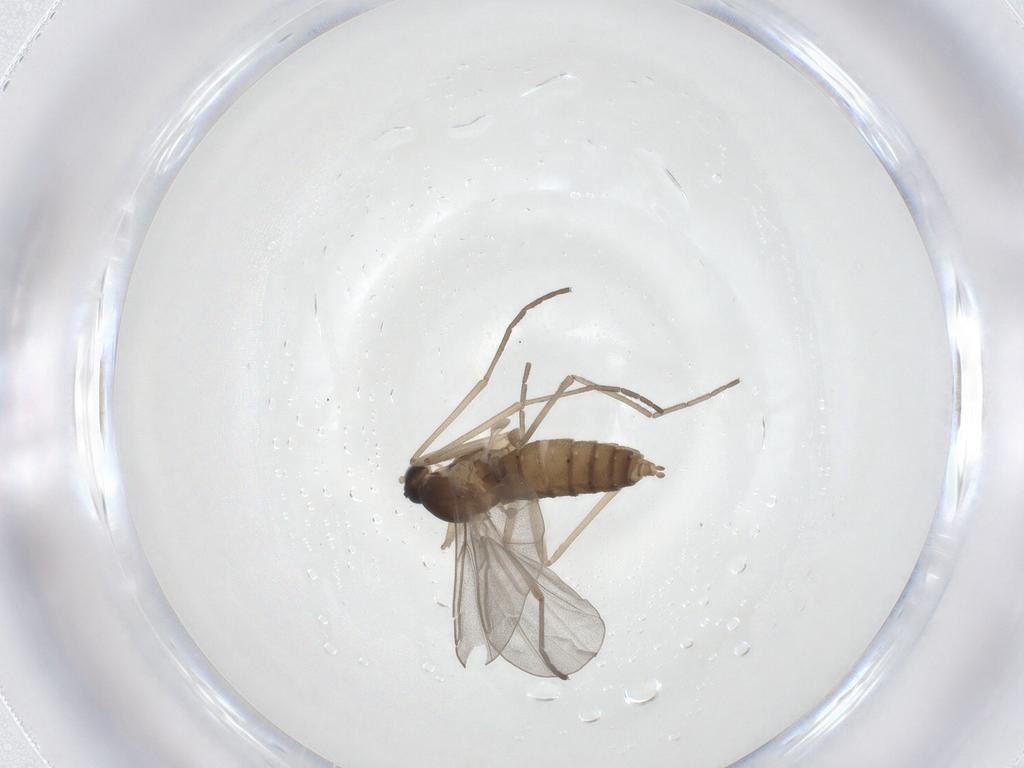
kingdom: Animalia
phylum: Arthropoda
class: Insecta
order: Diptera
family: Cecidomyiidae
